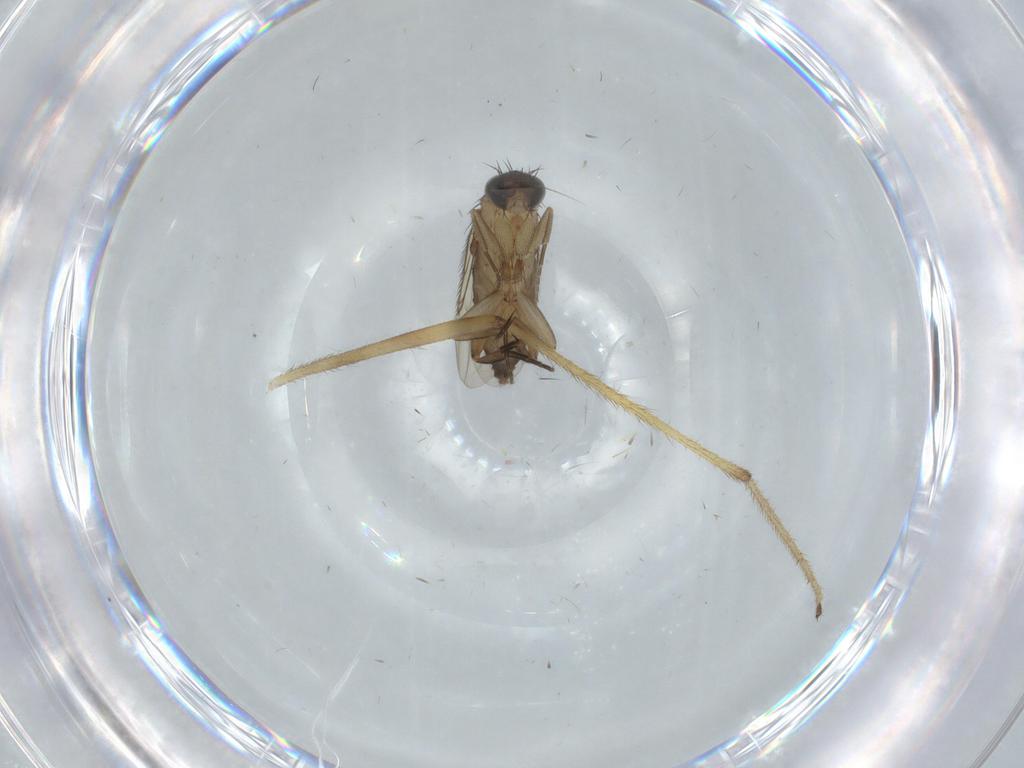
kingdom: Animalia
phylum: Arthropoda
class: Insecta
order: Diptera
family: Phoridae
